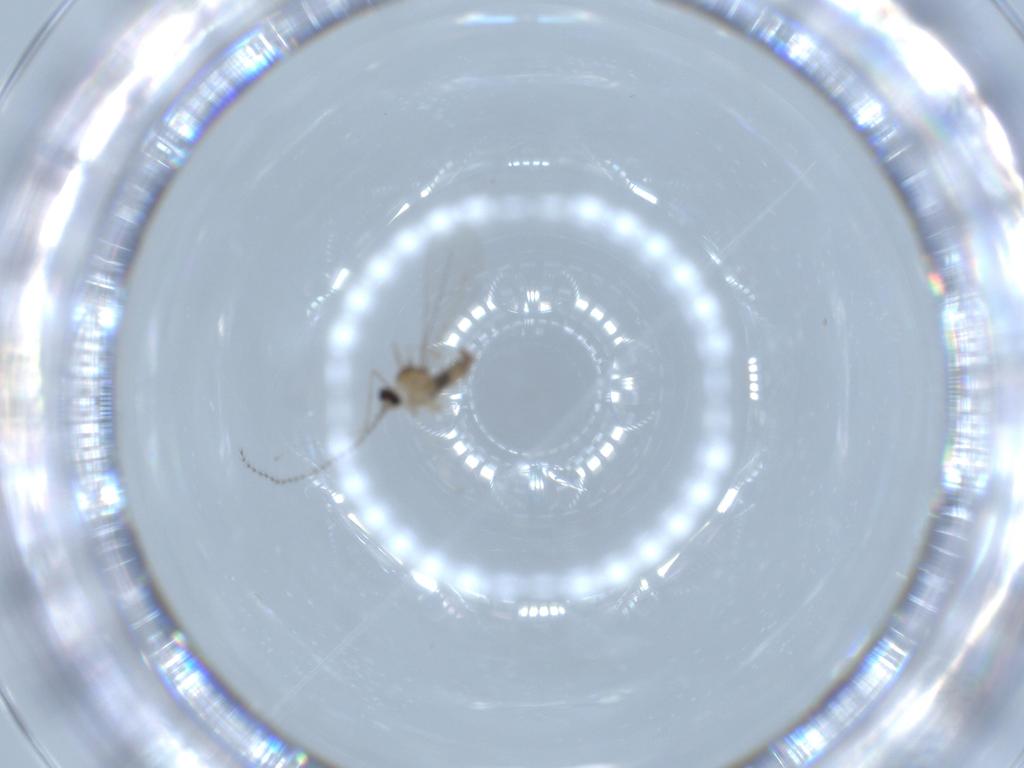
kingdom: Animalia
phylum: Arthropoda
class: Insecta
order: Diptera
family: Cecidomyiidae
